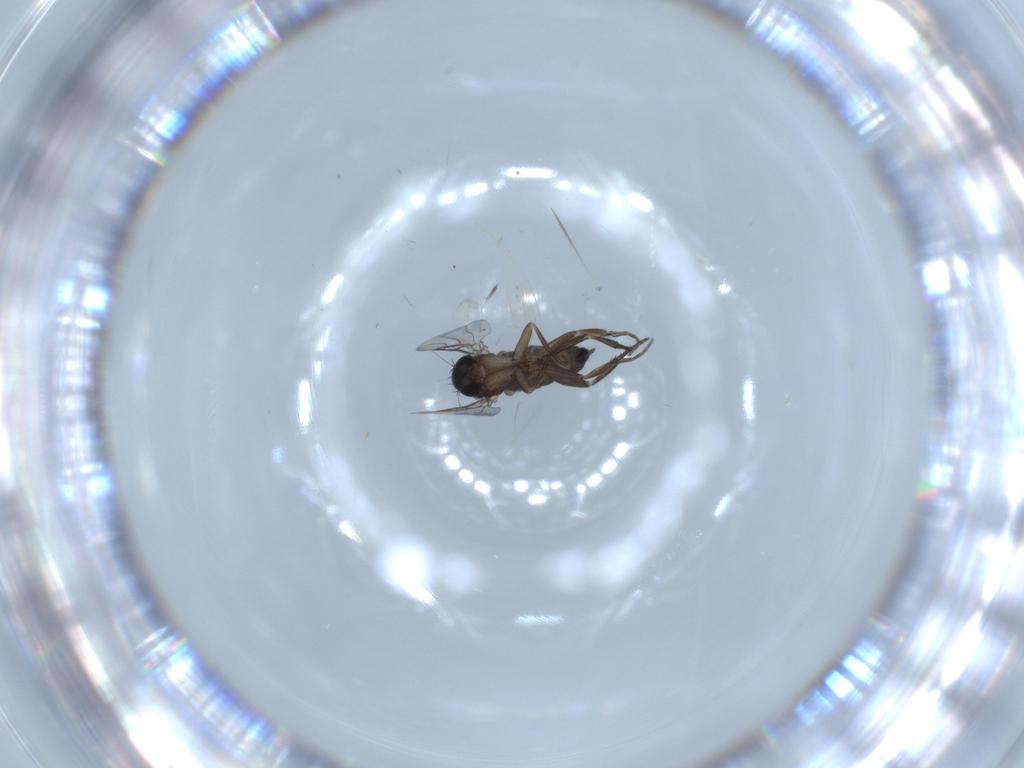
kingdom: Animalia
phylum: Arthropoda
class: Insecta
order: Diptera
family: Phoridae
